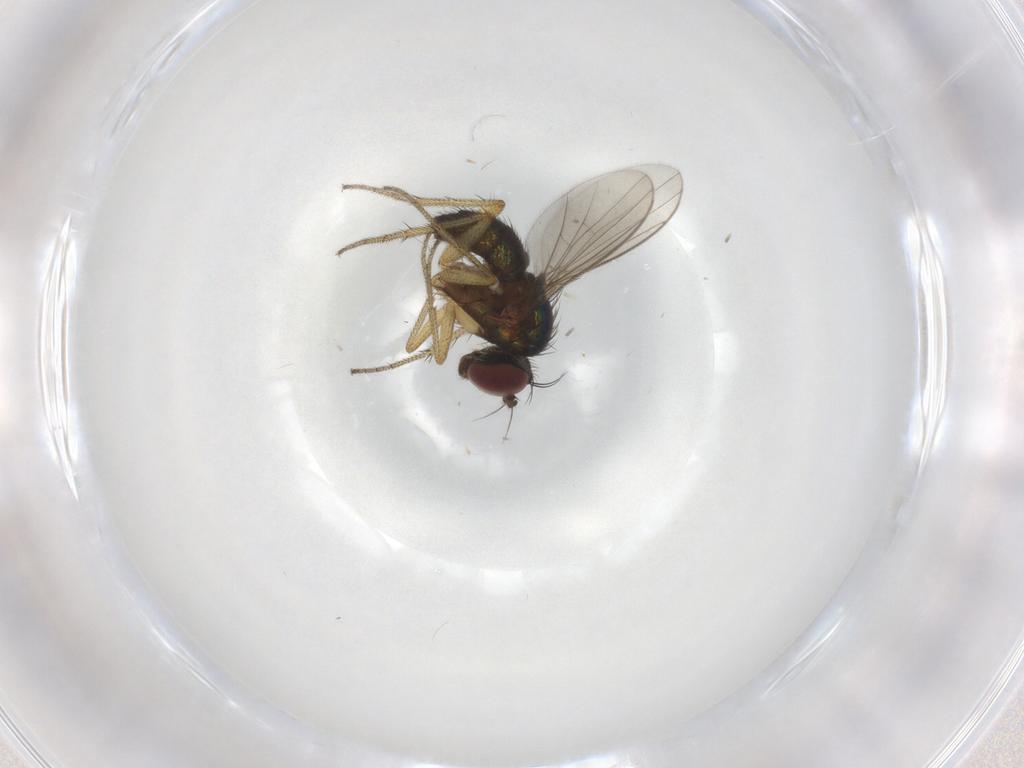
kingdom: Animalia
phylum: Arthropoda
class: Insecta
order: Diptera
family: Dolichopodidae
